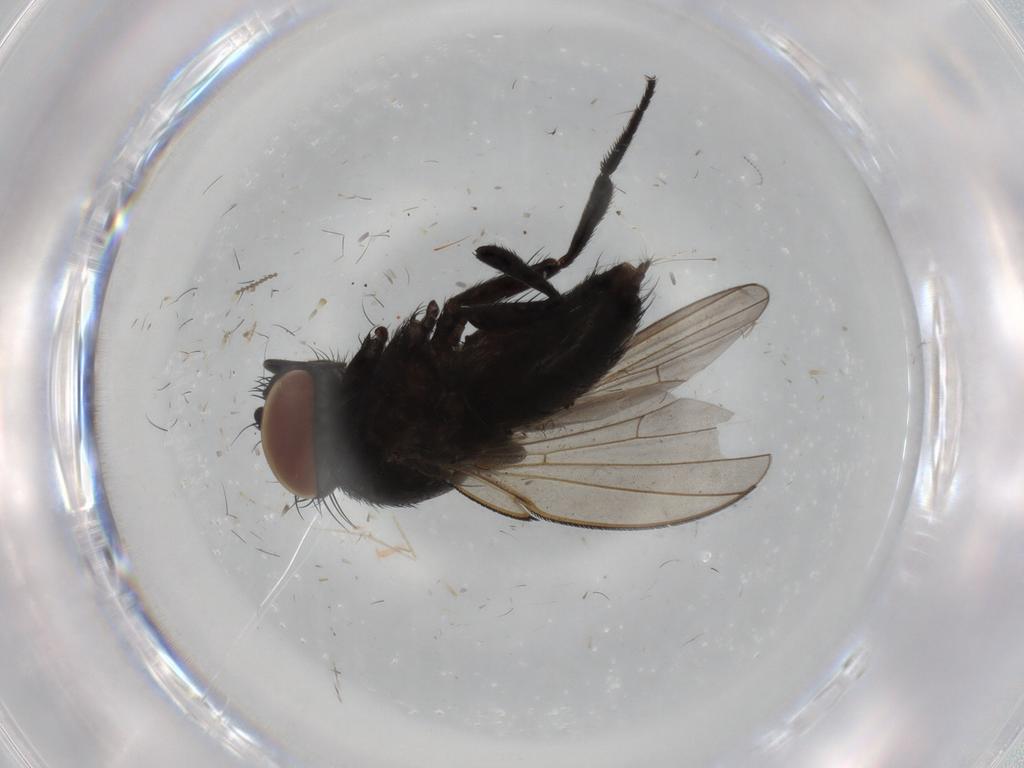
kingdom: Animalia
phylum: Arthropoda
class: Insecta
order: Diptera
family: Milichiidae
